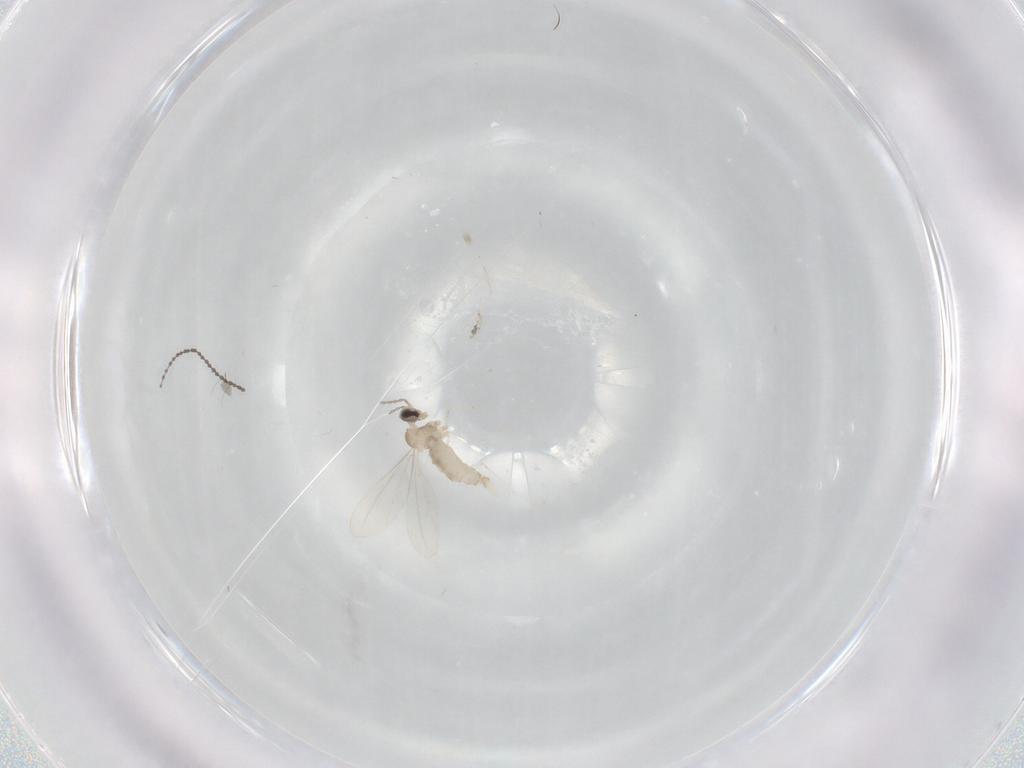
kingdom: Animalia
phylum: Arthropoda
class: Insecta
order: Diptera
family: Cecidomyiidae
